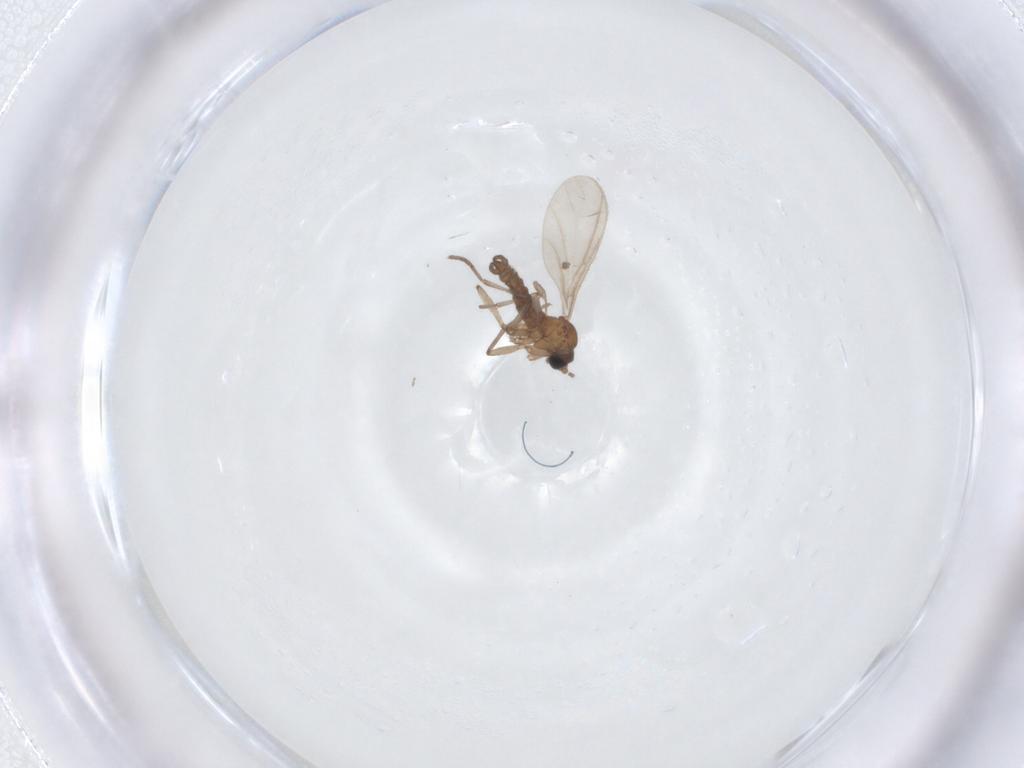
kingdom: Animalia
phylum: Arthropoda
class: Insecta
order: Diptera
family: Sciaridae
